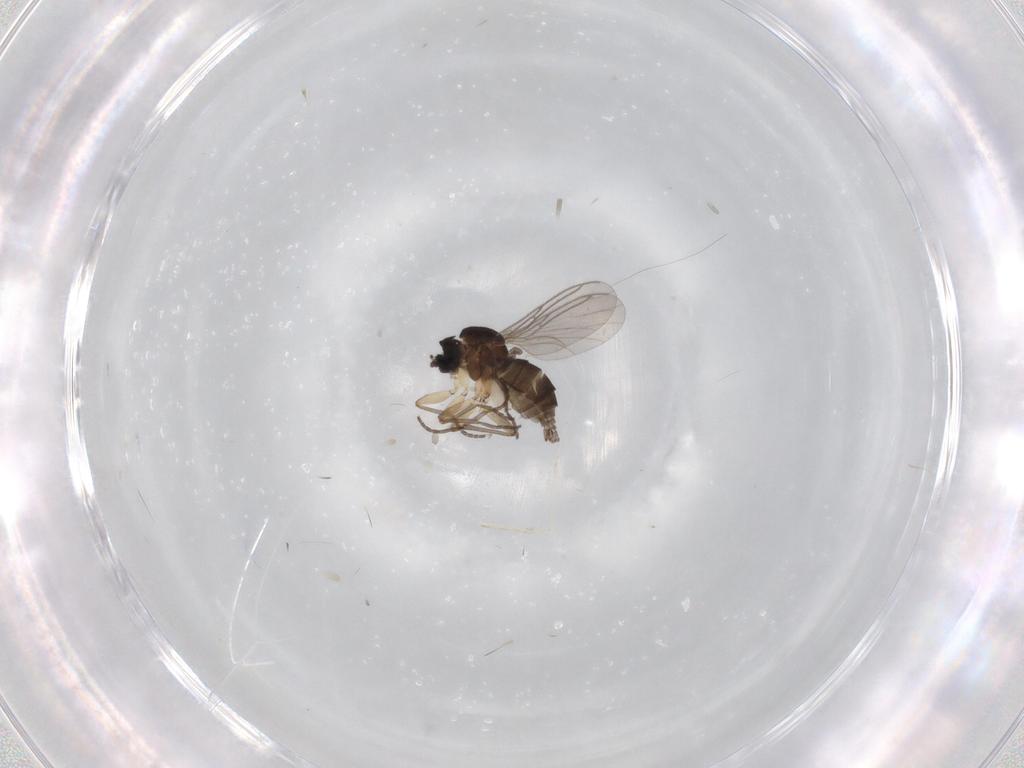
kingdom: Animalia
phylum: Arthropoda
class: Insecta
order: Diptera
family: Sciaridae
